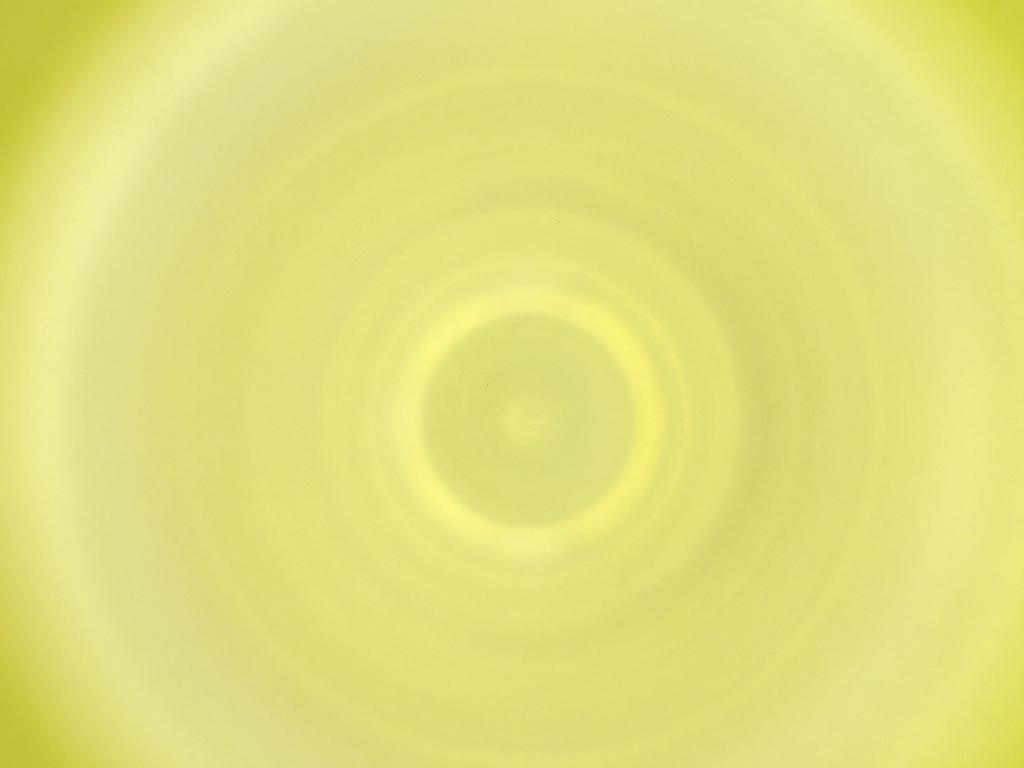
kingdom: Animalia
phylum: Arthropoda
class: Insecta
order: Diptera
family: Cecidomyiidae
